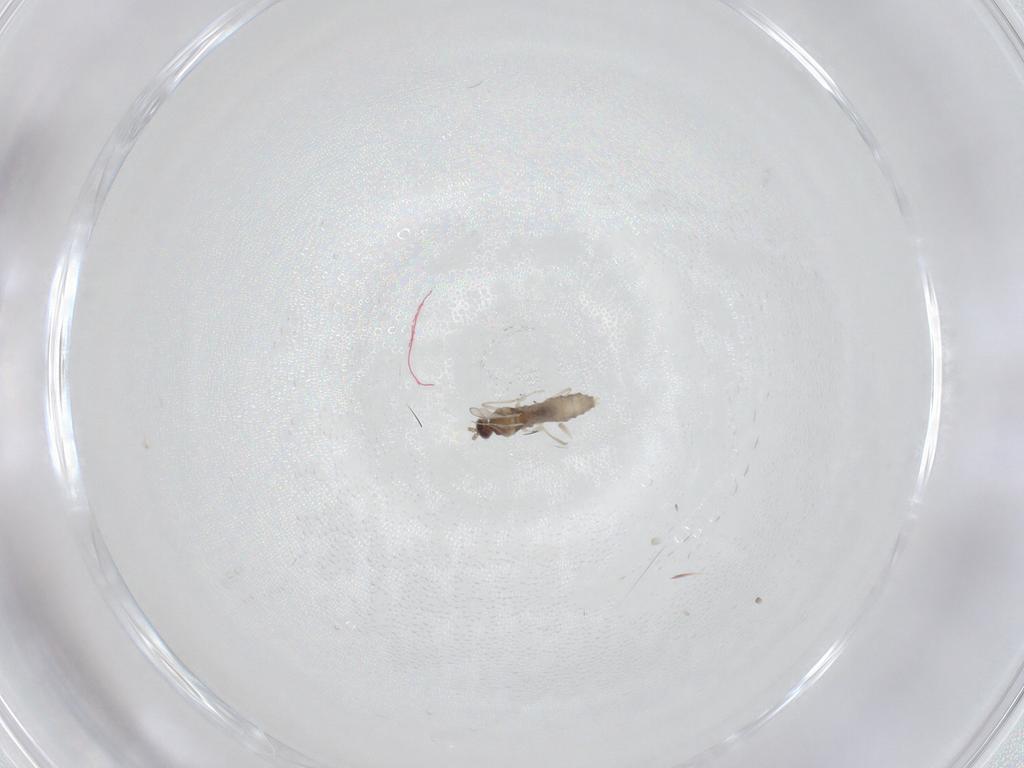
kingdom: Animalia
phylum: Arthropoda
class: Insecta
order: Diptera
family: Cecidomyiidae
